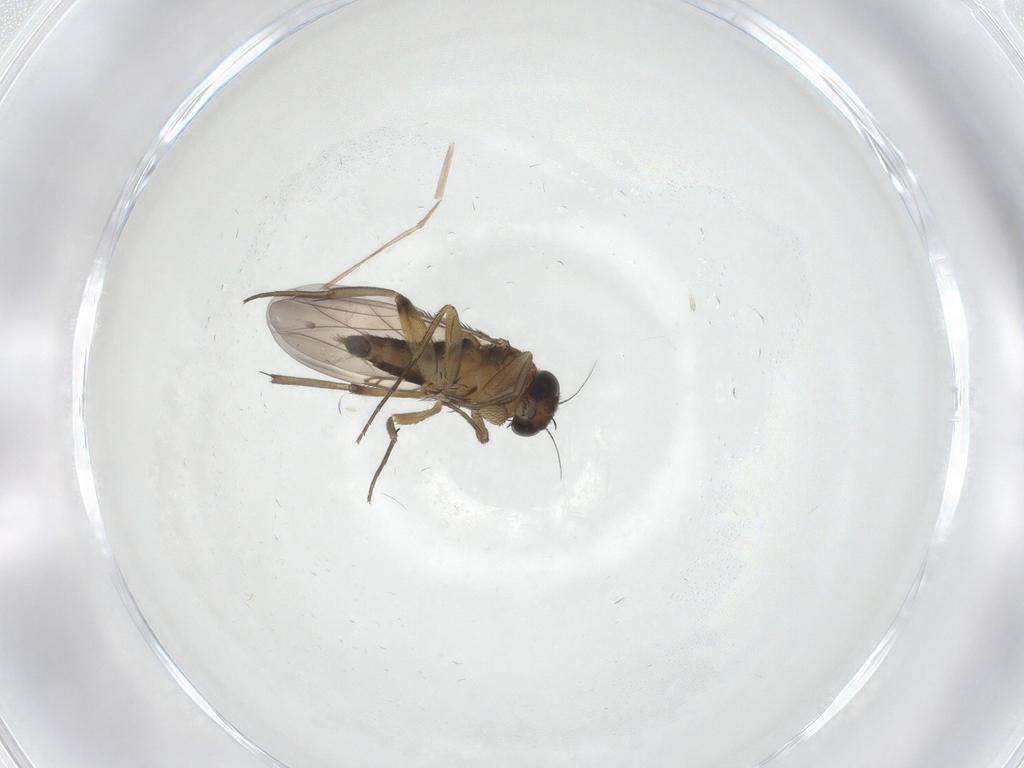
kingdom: Animalia
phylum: Arthropoda
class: Insecta
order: Diptera
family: Phoridae
